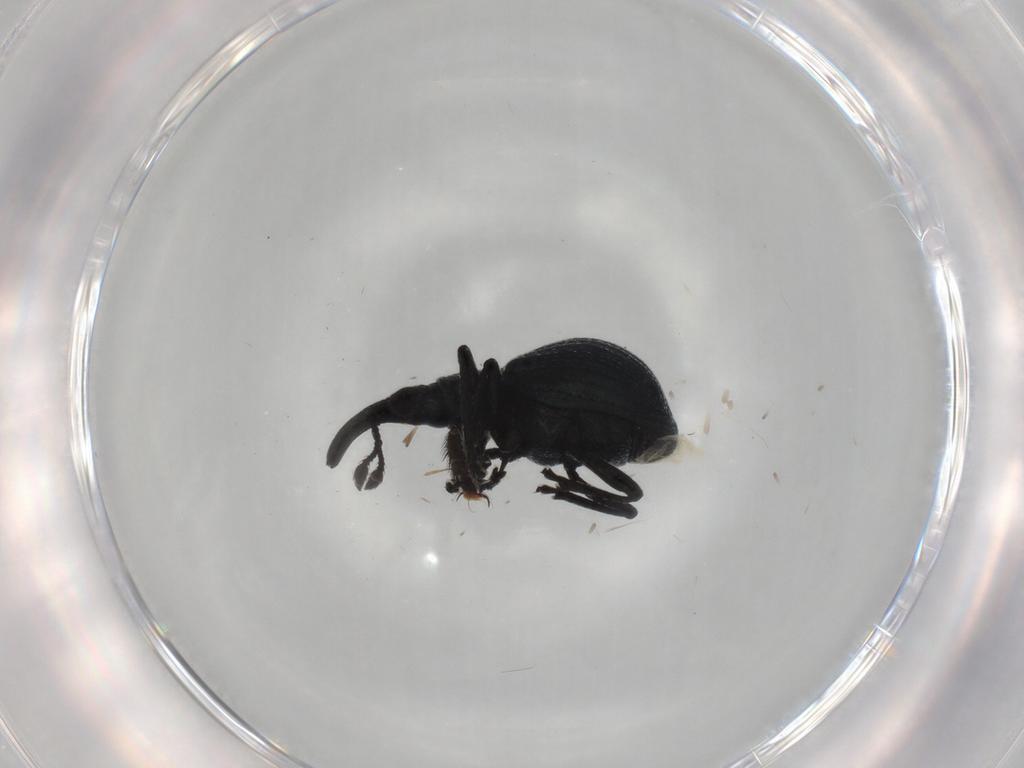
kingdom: Animalia
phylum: Arthropoda
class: Insecta
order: Coleoptera
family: Brentidae
